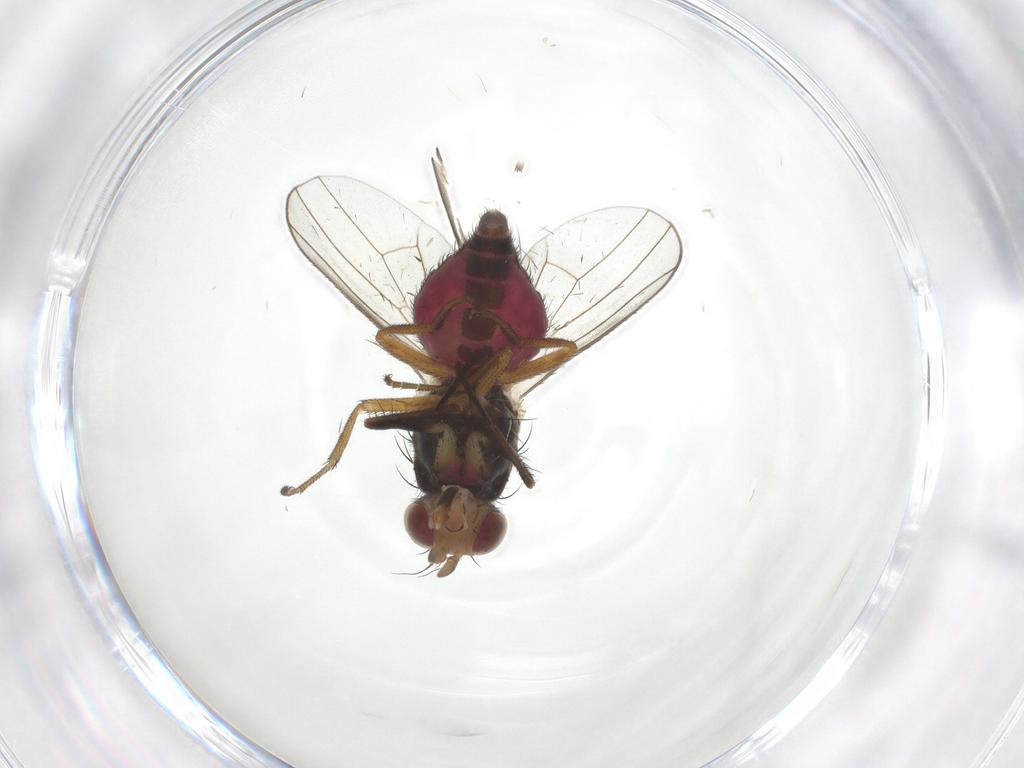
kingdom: Animalia
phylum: Arthropoda
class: Insecta
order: Diptera
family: Heleomyzidae
